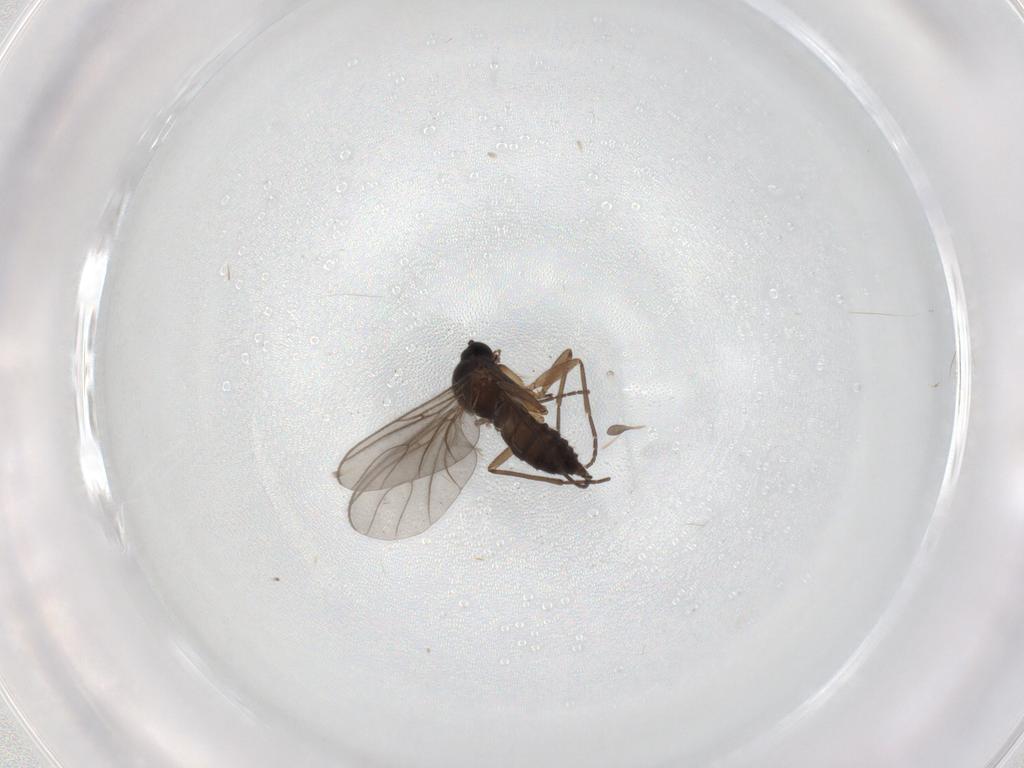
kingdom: Animalia
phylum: Arthropoda
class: Insecta
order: Diptera
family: Sciaridae
